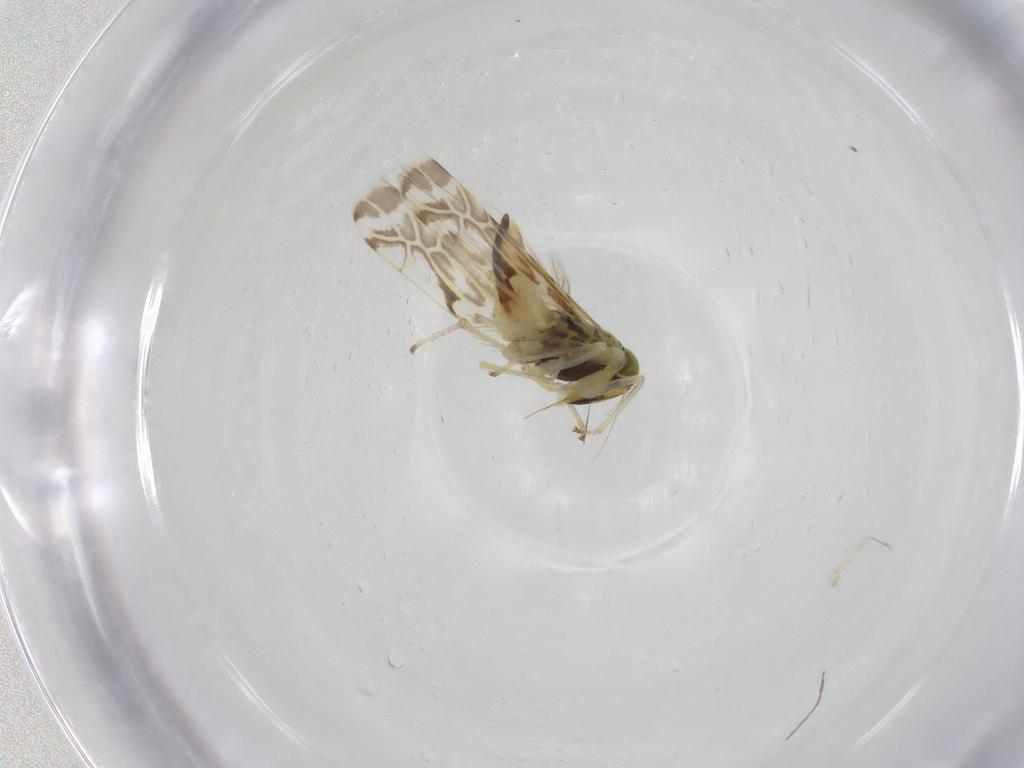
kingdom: Animalia
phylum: Arthropoda
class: Insecta
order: Hemiptera
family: Cicadellidae
